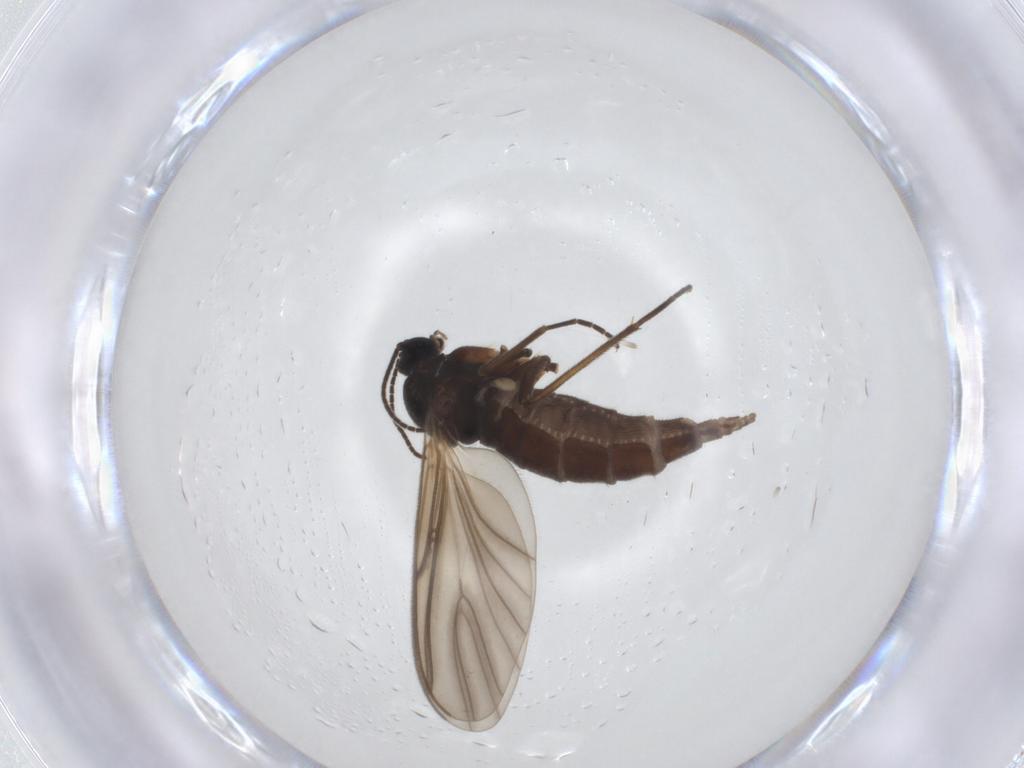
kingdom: Animalia
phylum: Arthropoda
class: Insecta
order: Diptera
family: Sciaridae
